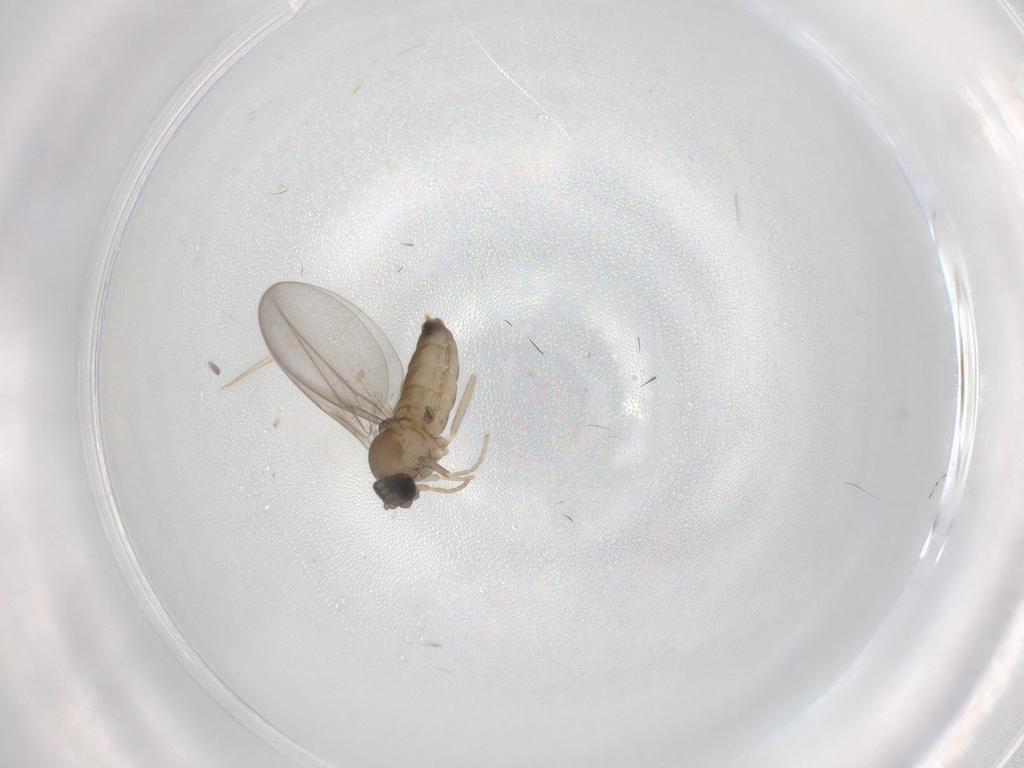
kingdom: Animalia
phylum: Arthropoda
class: Insecta
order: Diptera
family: Cecidomyiidae
